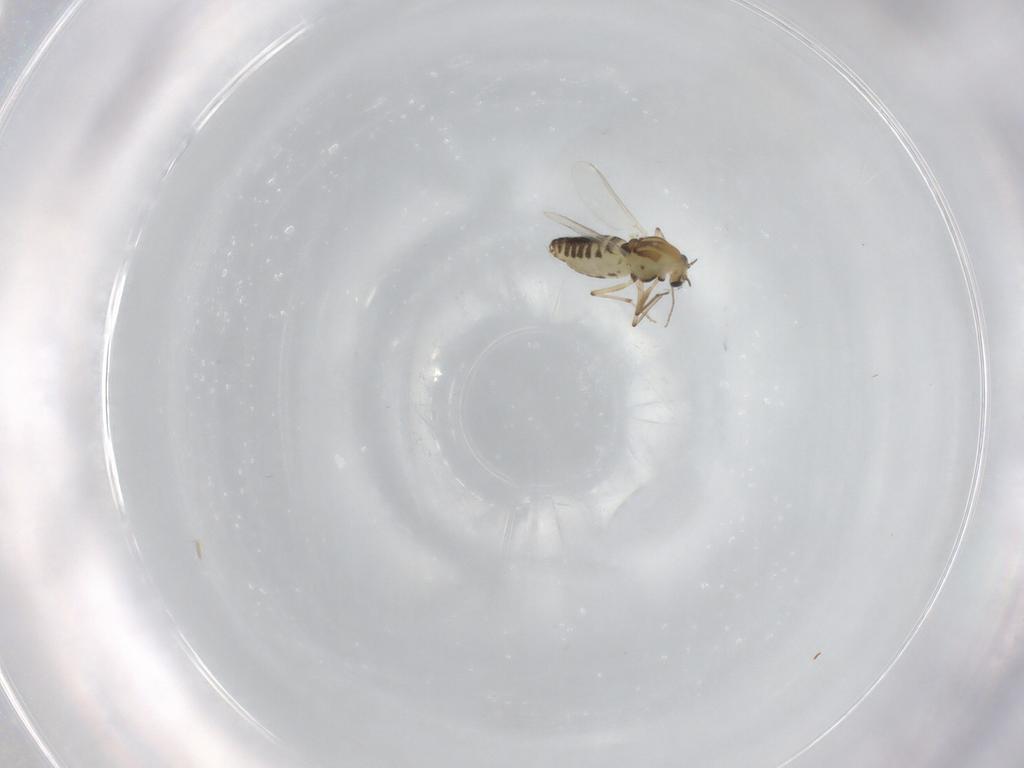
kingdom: Animalia
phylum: Arthropoda
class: Insecta
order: Diptera
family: Chironomidae
